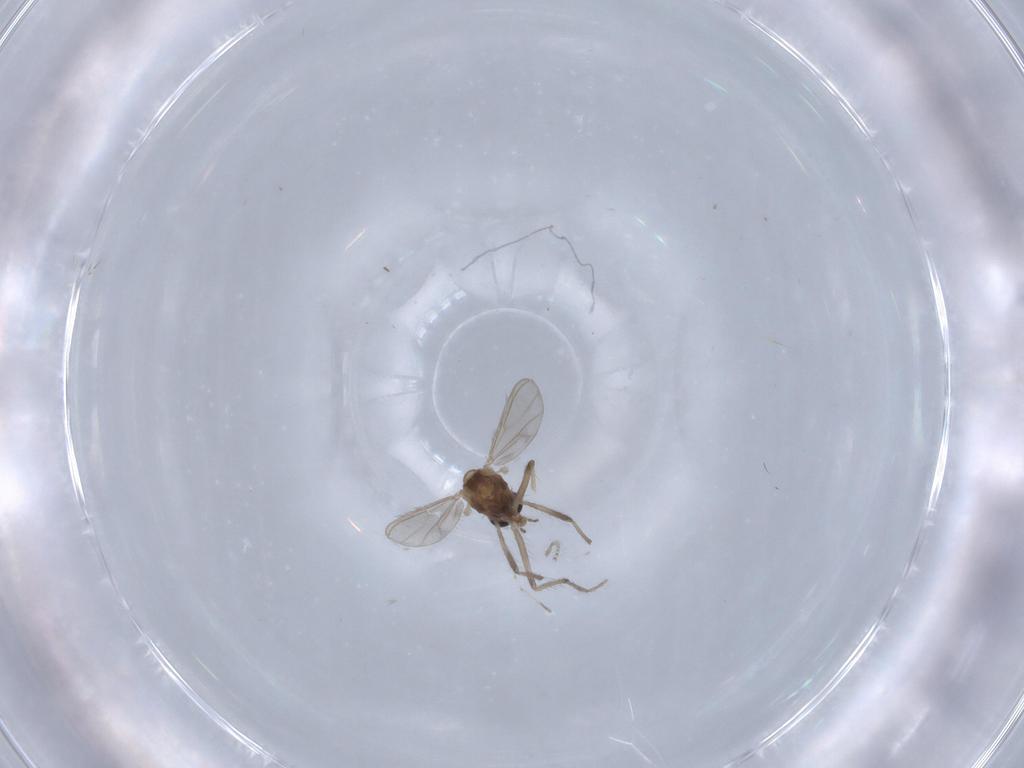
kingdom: Animalia
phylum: Arthropoda
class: Insecta
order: Diptera
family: Chironomidae
